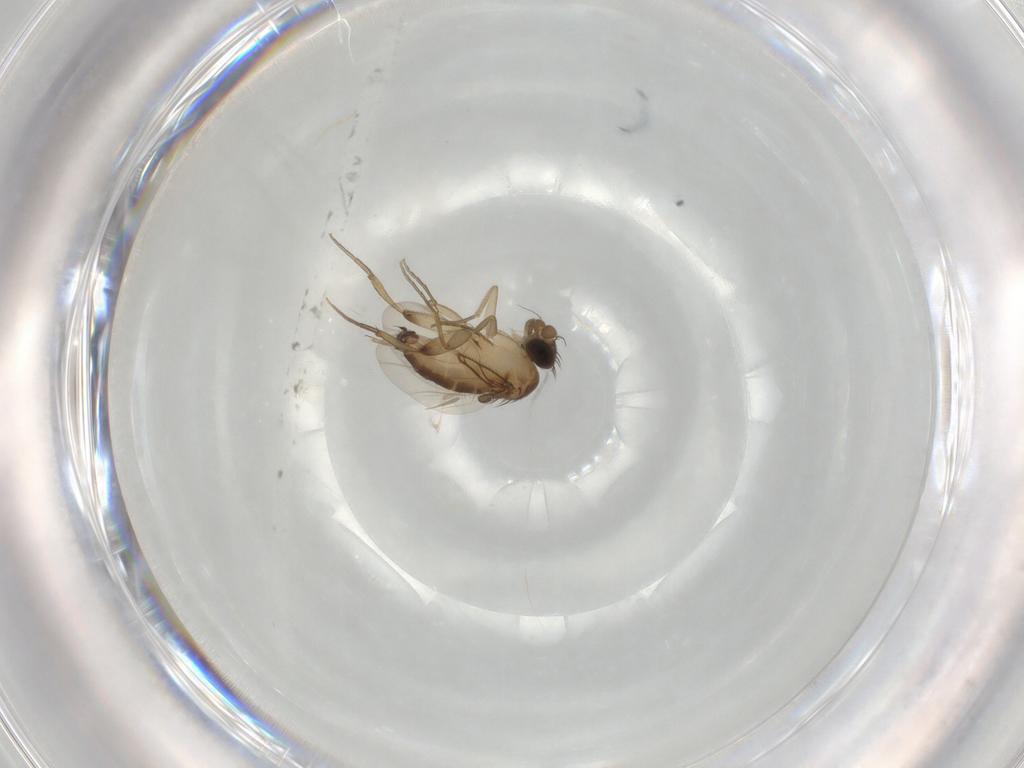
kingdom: Animalia
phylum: Arthropoda
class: Insecta
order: Diptera
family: Phoridae
